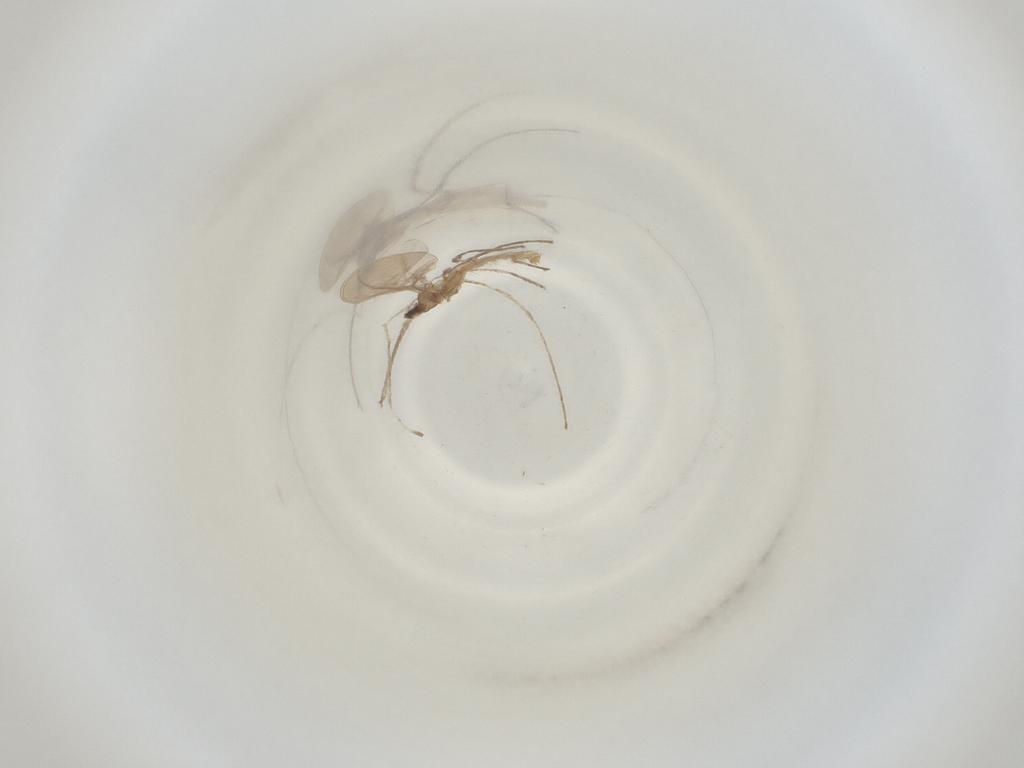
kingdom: Animalia
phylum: Arthropoda
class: Insecta
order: Diptera
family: Cecidomyiidae
